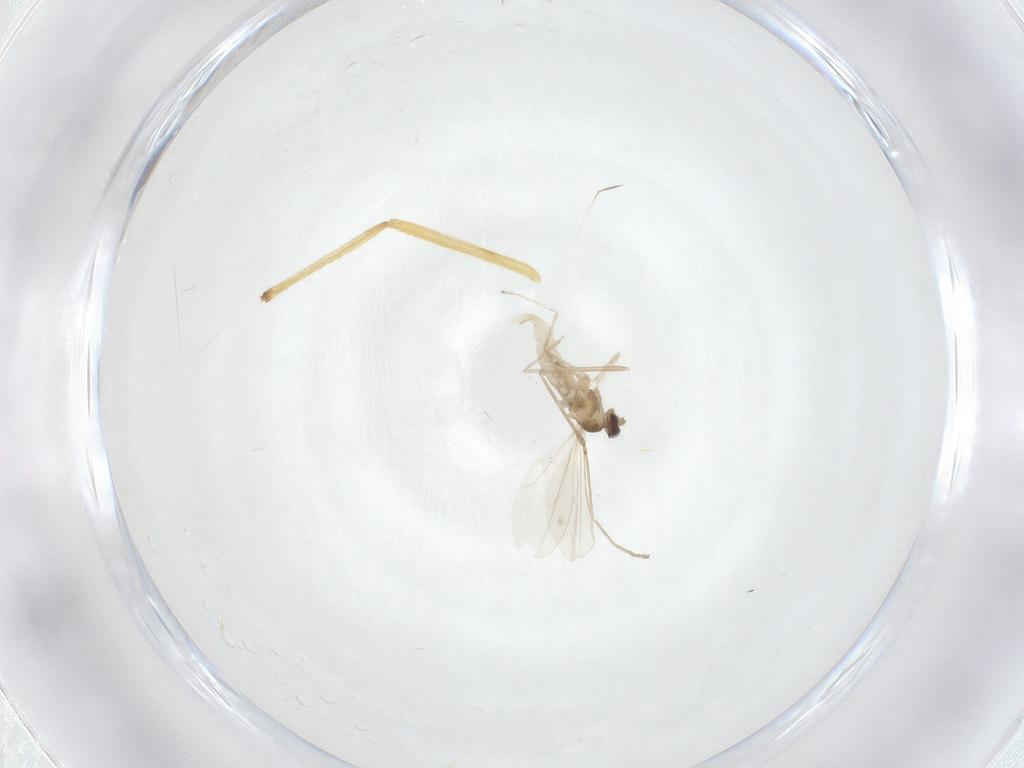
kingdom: Animalia
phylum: Arthropoda
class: Insecta
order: Diptera
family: Cecidomyiidae
